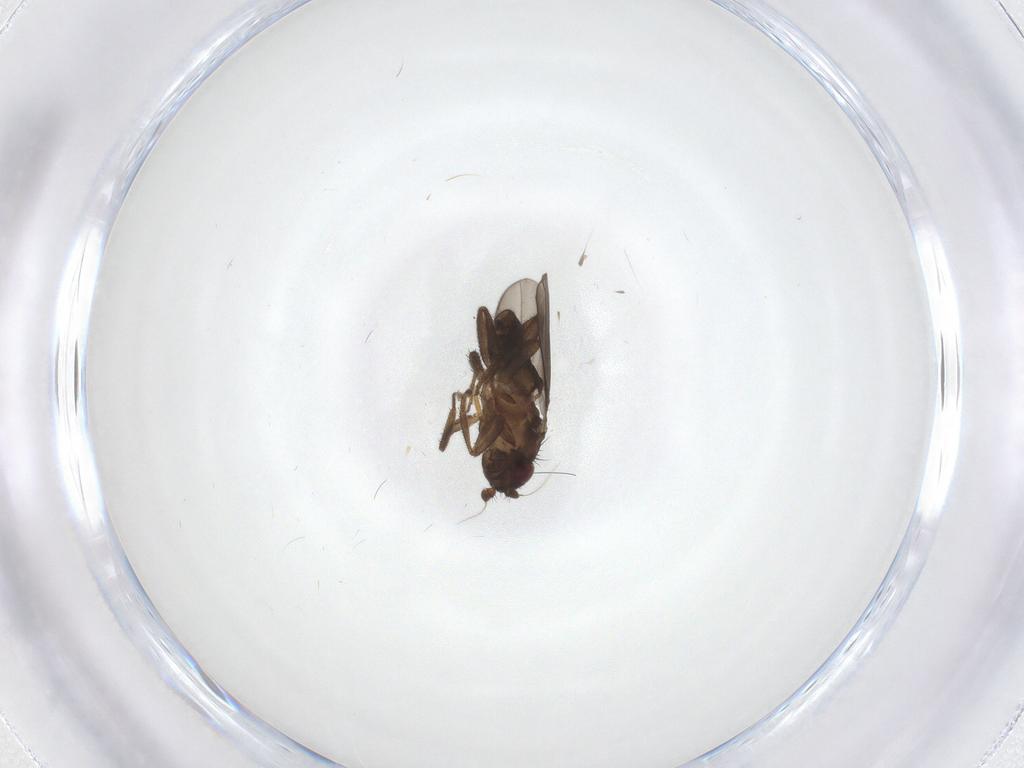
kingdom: Animalia
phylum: Arthropoda
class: Insecta
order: Diptera
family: Sphaeroceridae
